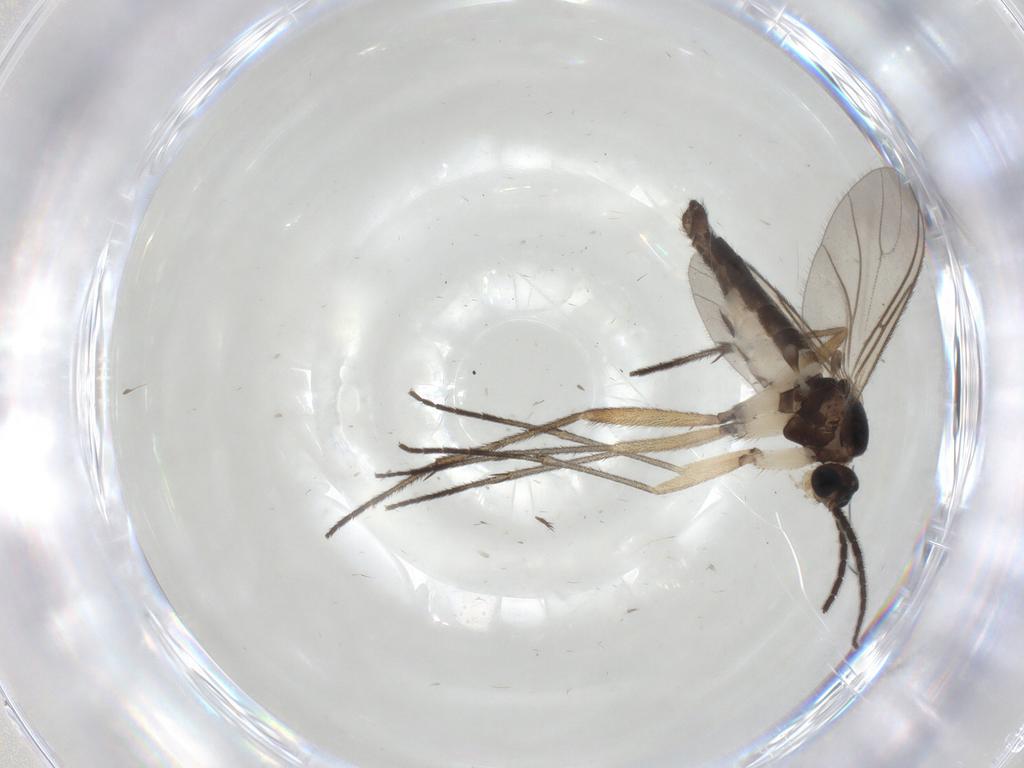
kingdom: Animalia
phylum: Arthropoda
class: Insecta
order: Diptera
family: Sciaridae
